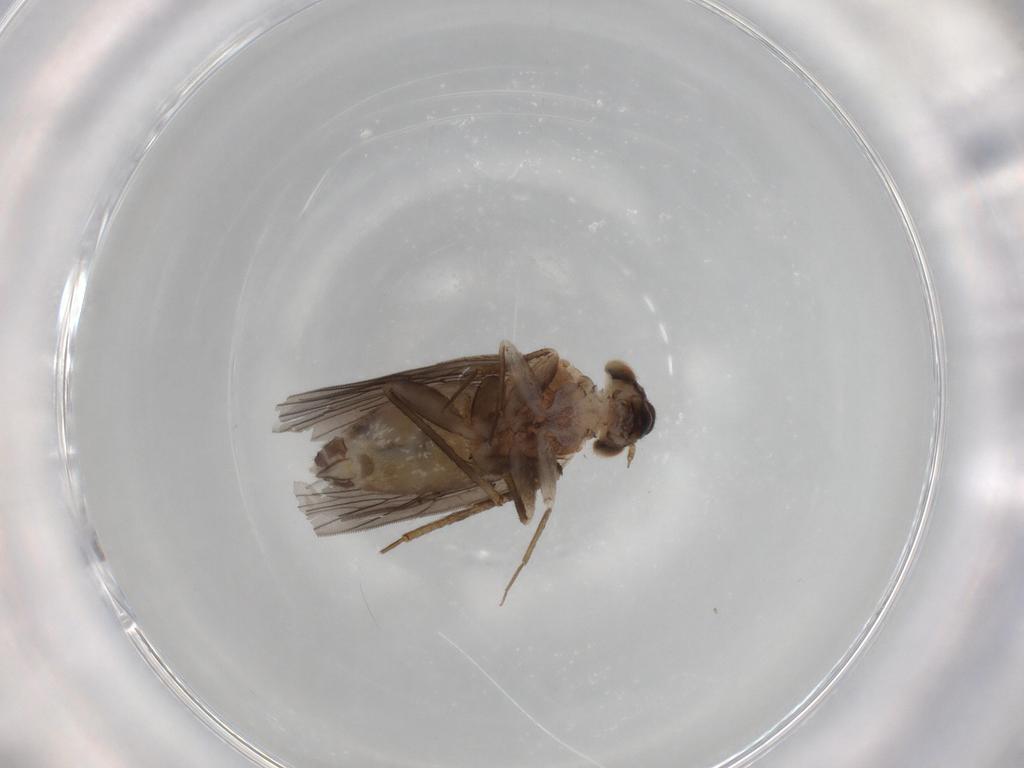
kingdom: Animalia
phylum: Arthropoda
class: Insecta
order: Psocodea
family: Lepidopsocidae
